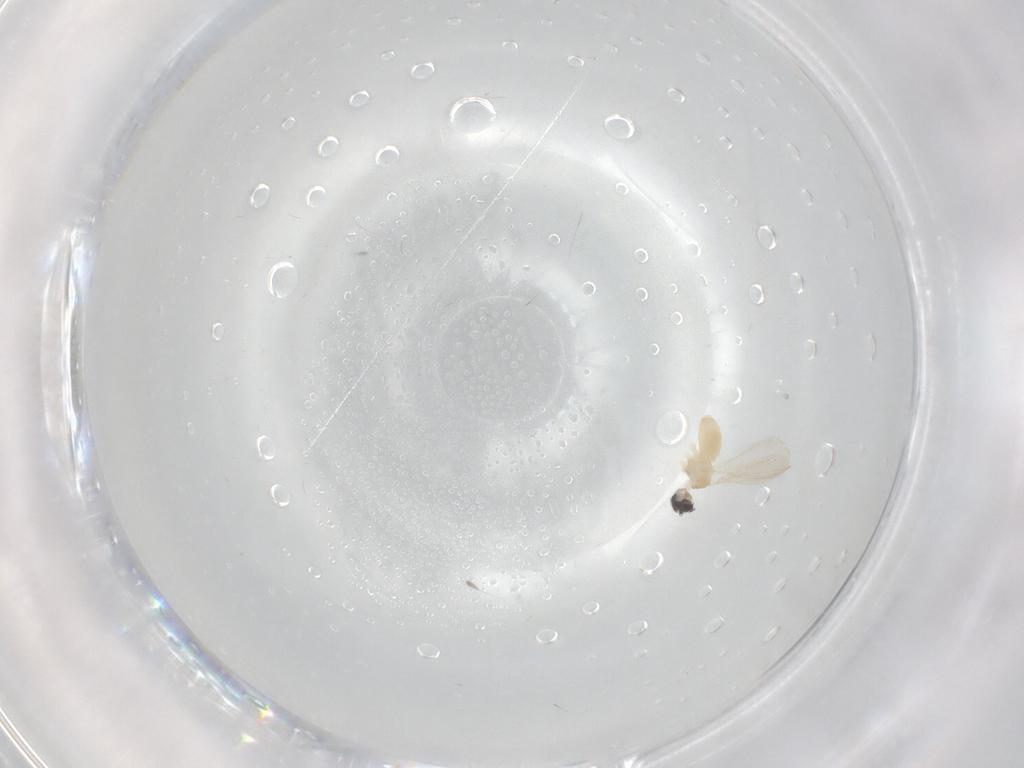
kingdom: Animalia
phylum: Arthropoda
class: Insecta
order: Diptera
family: Cecidomyiidae
